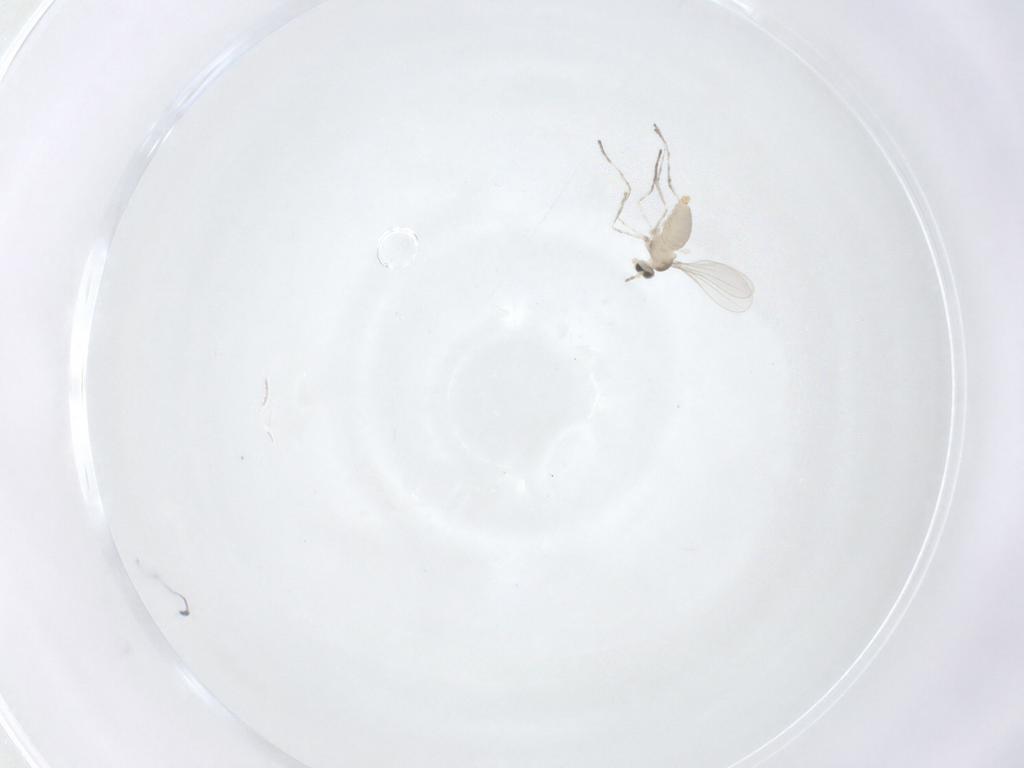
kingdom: Animalia
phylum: Arthropoda
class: Insecta
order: Diptera
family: Cecidomyiidae
